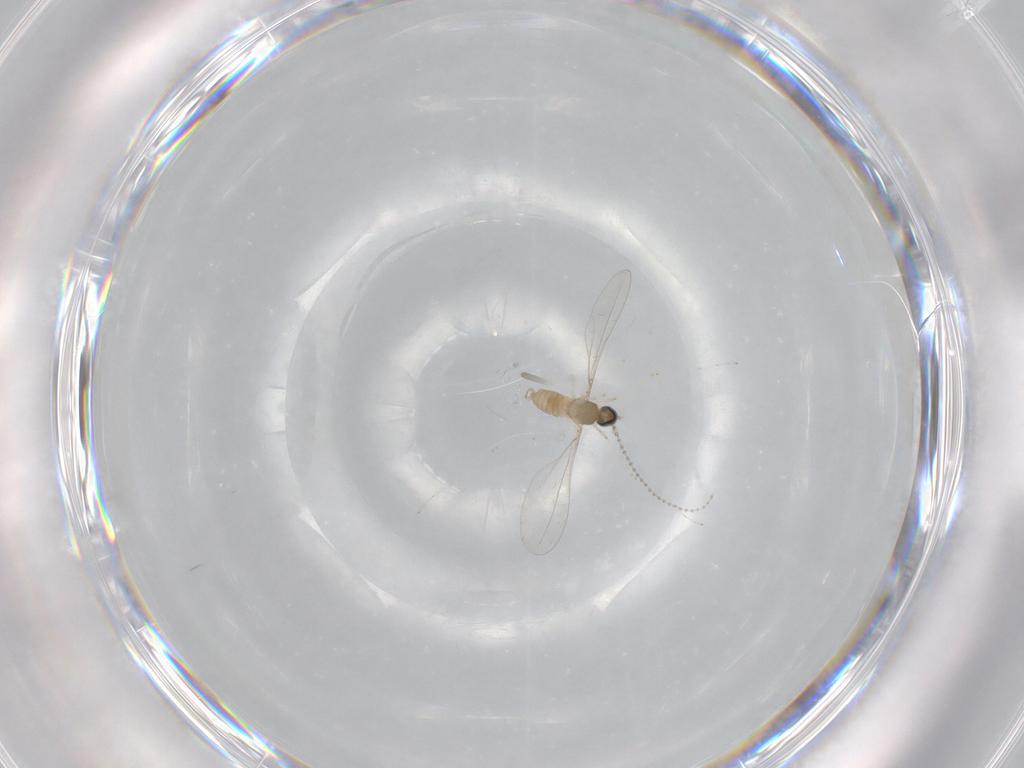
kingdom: Animalia
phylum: Arthropoda
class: Insecta
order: Diptera
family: Cecidomyiidae
